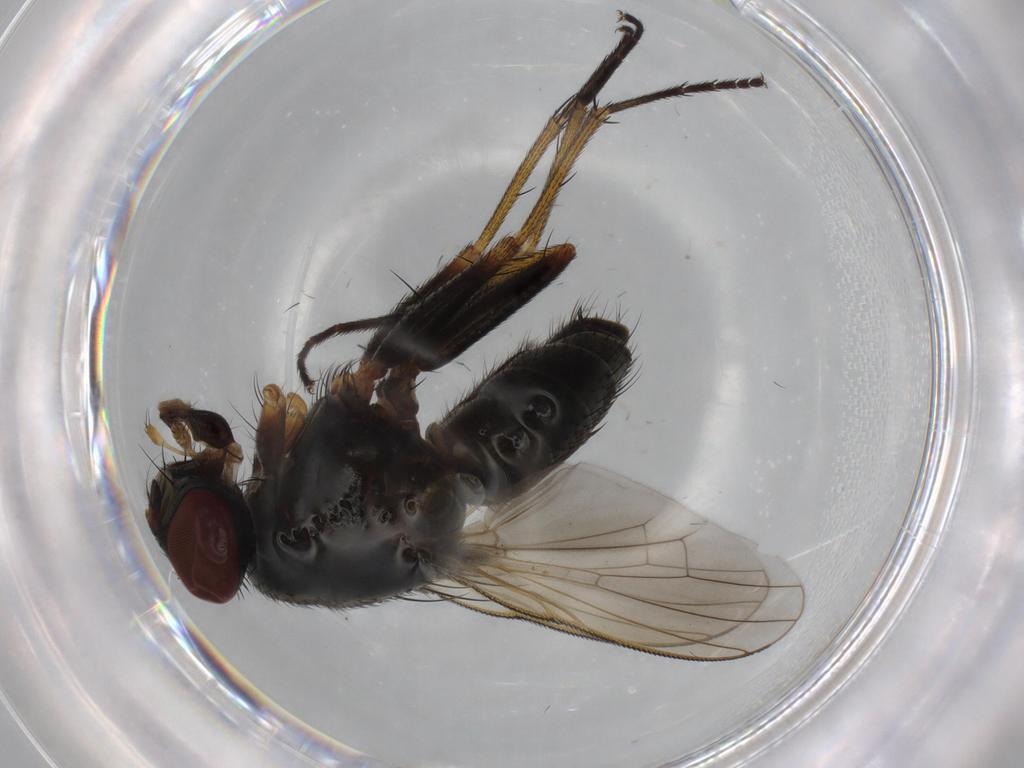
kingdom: Animalia
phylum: Arthropoda
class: Insecta
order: Diptera
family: Muscidae
